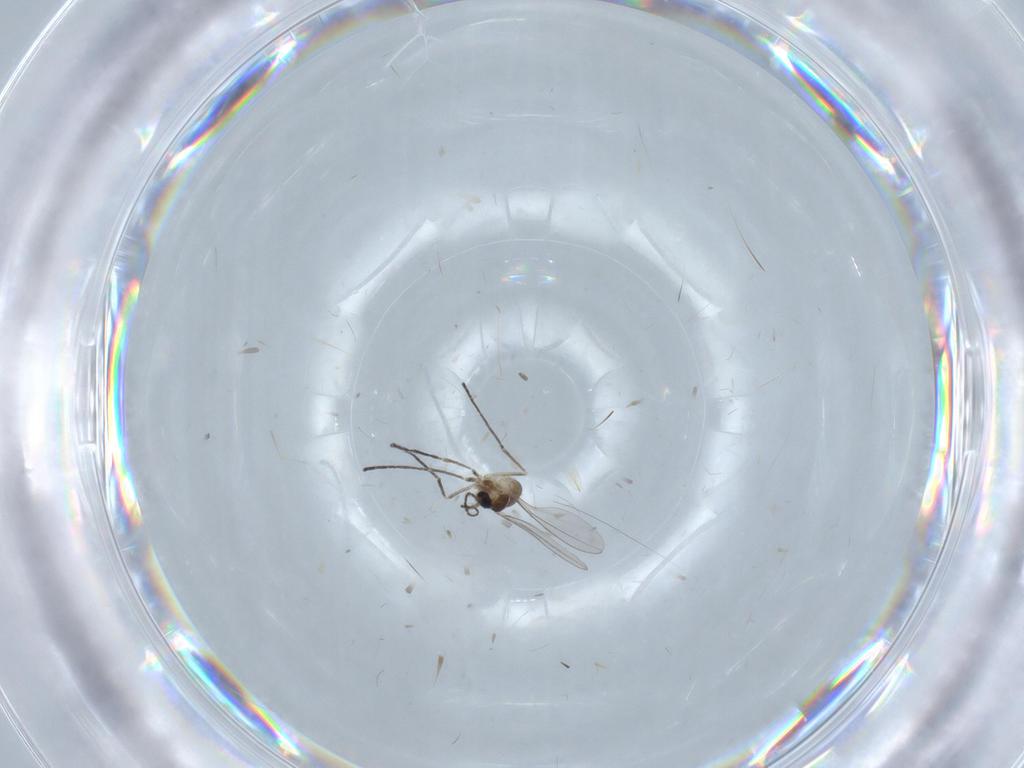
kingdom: Animalia
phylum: Arthropoda
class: Insecta
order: Diptera
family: Cecidomyiidae
